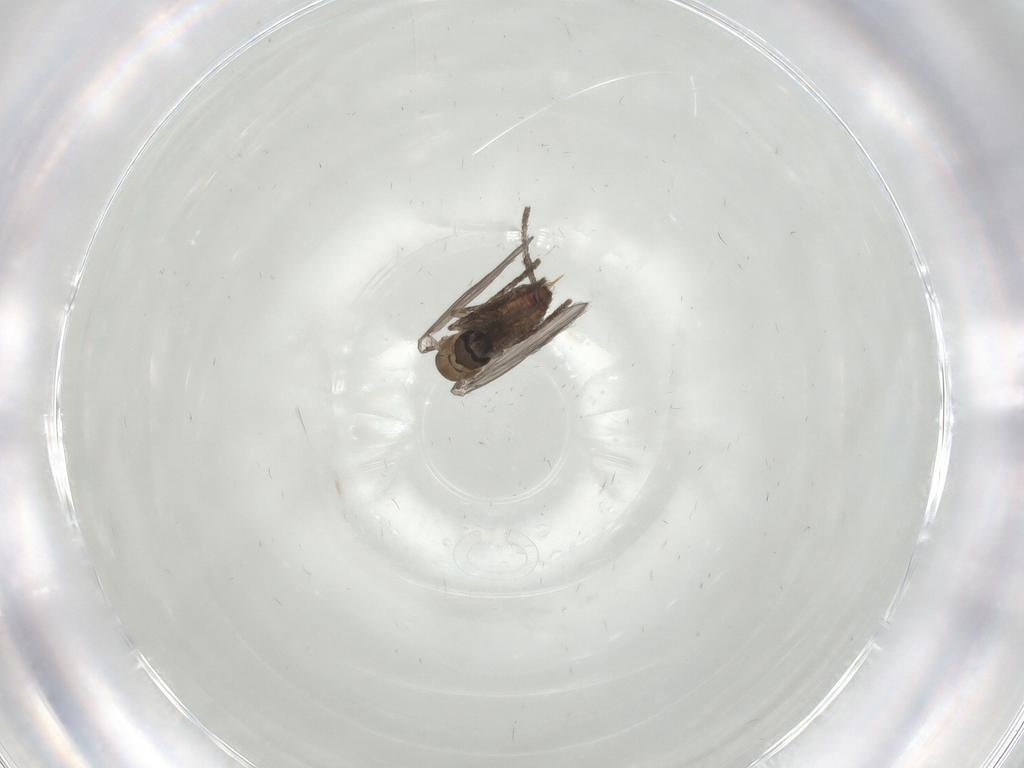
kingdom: Animalia
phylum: Arthropoda
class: Insecta
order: Diptera
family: Psychodidae
